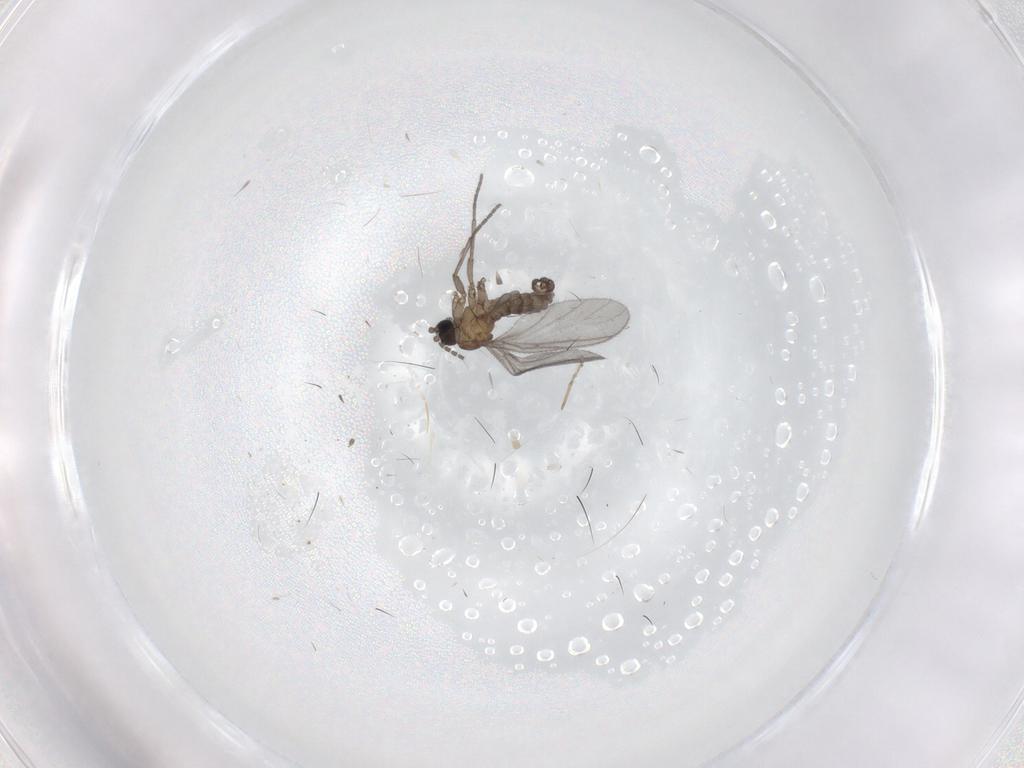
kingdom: Animalia
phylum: Arthropoda
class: Insecta
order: Diptera
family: Sciaridae
